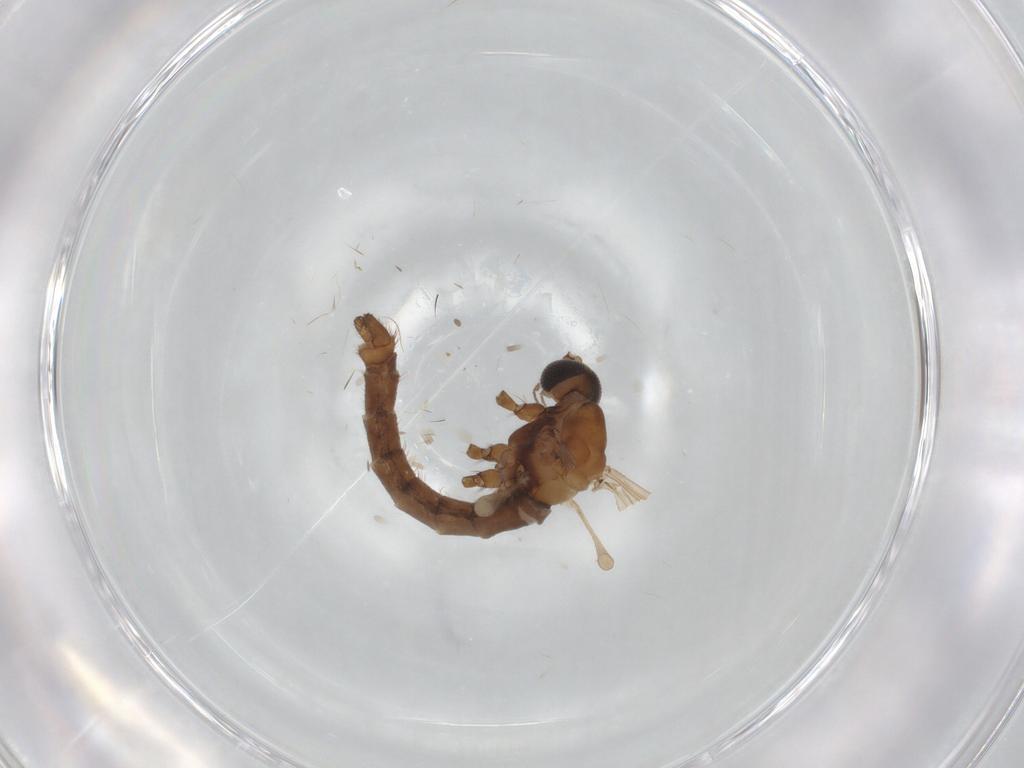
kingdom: Animalia
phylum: Arthropoda
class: Insecta
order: Diptera
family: Limoniidae
